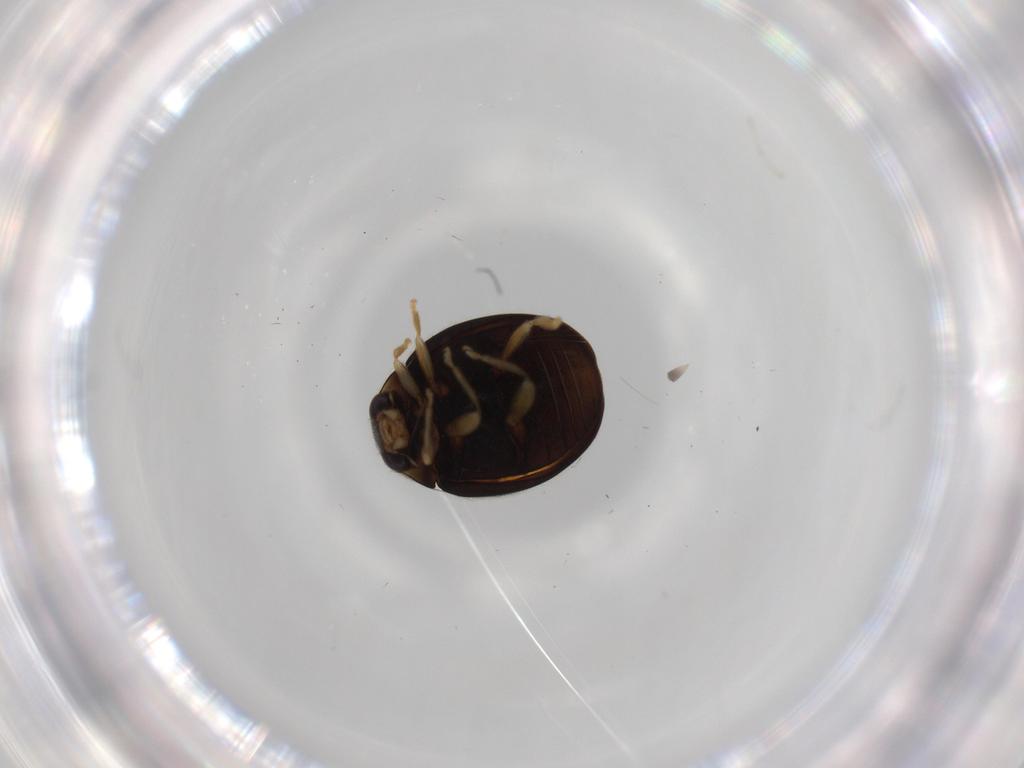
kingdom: Animalia
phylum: Arthropoda
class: Insecta
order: Coleoptera
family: Coccinellidae
